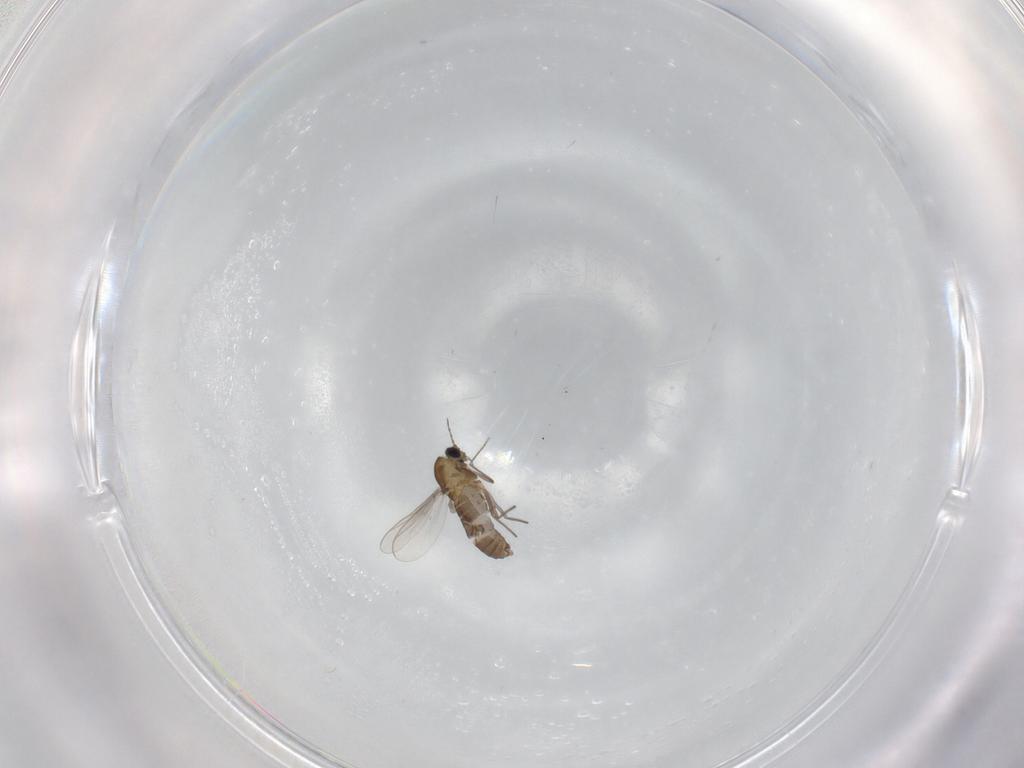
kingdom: Animalia
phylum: Arthropoda
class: Insecta
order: Diptera
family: Chironomidae
